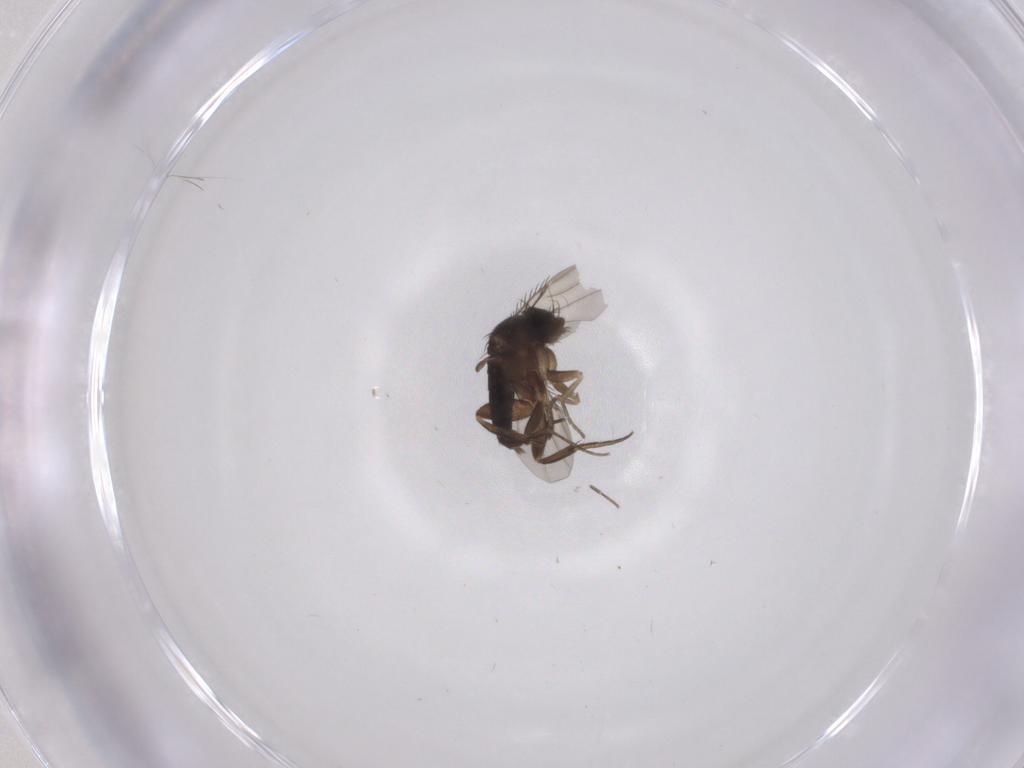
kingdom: Animalia
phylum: Arthropoda
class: Insecta
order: Diptera
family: Phoridae
